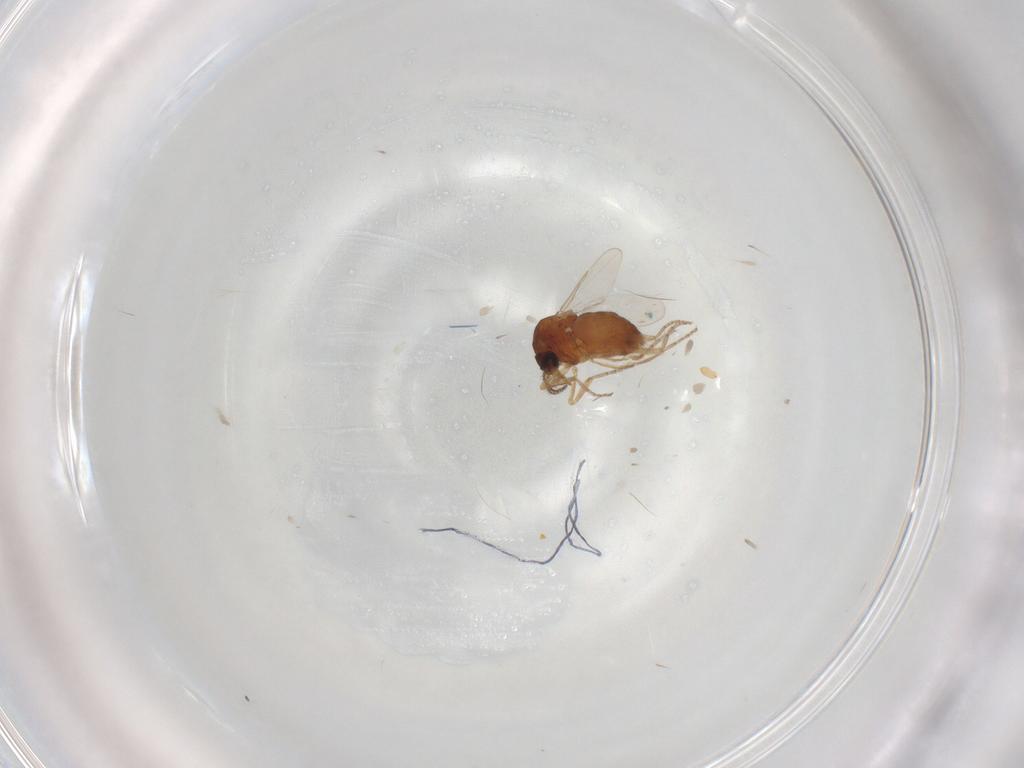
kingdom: Animalia
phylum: Arthropoda
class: Insecta
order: Diptera
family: Ceratopogonidae
